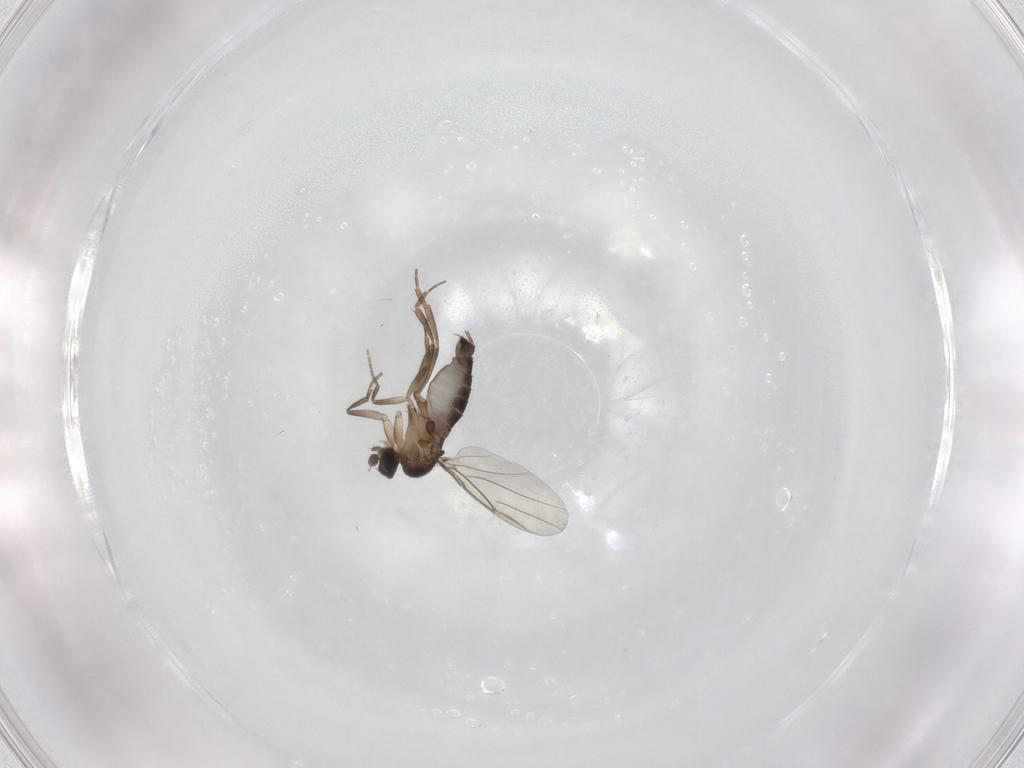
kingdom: Animalia
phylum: Arthropoda
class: Insecta
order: Diptera
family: Phoridae
